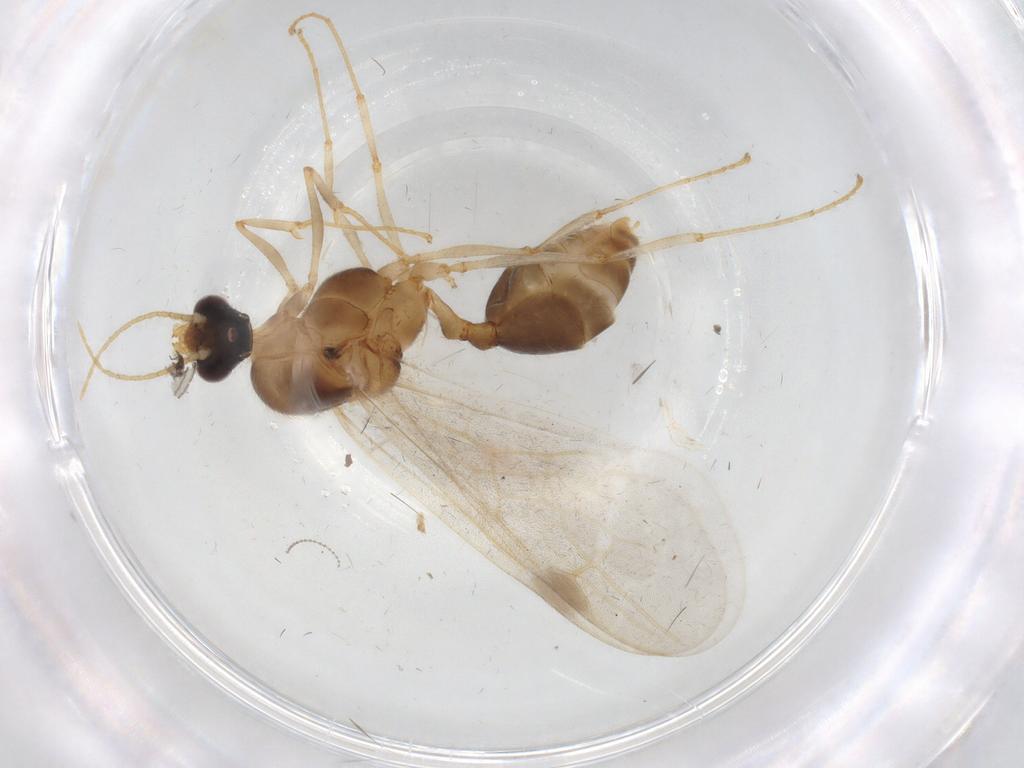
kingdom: Animalia
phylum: Arthropoda
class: Insecta
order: Hymenoptera
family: Formicidae
